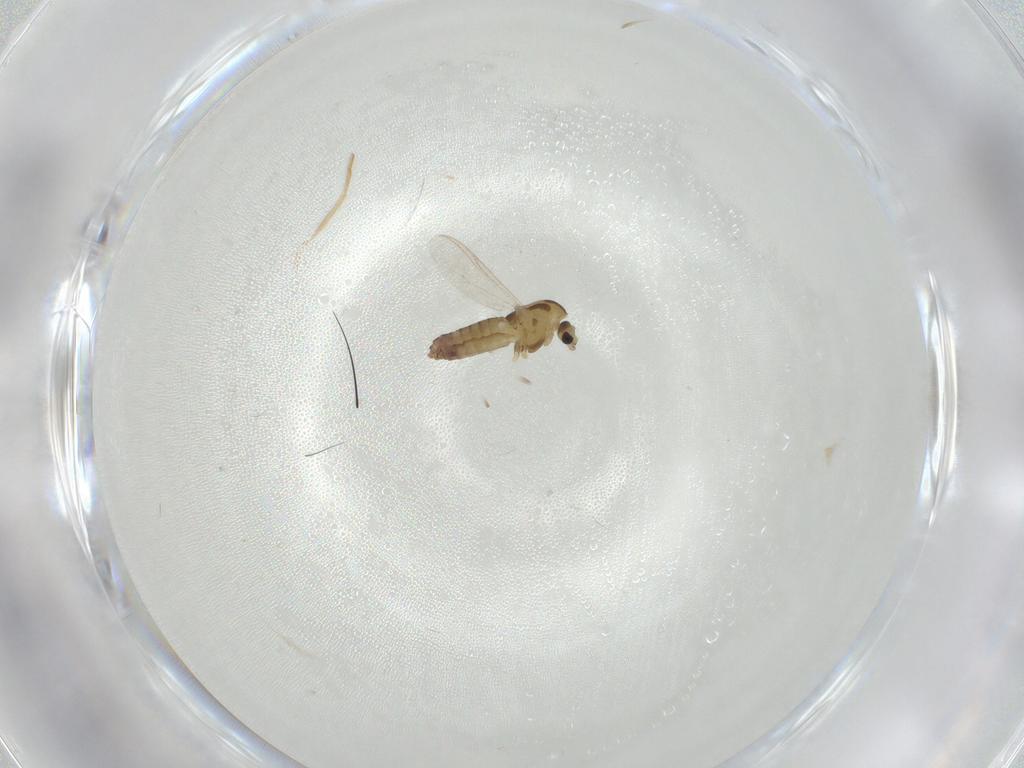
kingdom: Animalia
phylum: Arthropoda
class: Insecta
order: Diptera
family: Chironomidae
